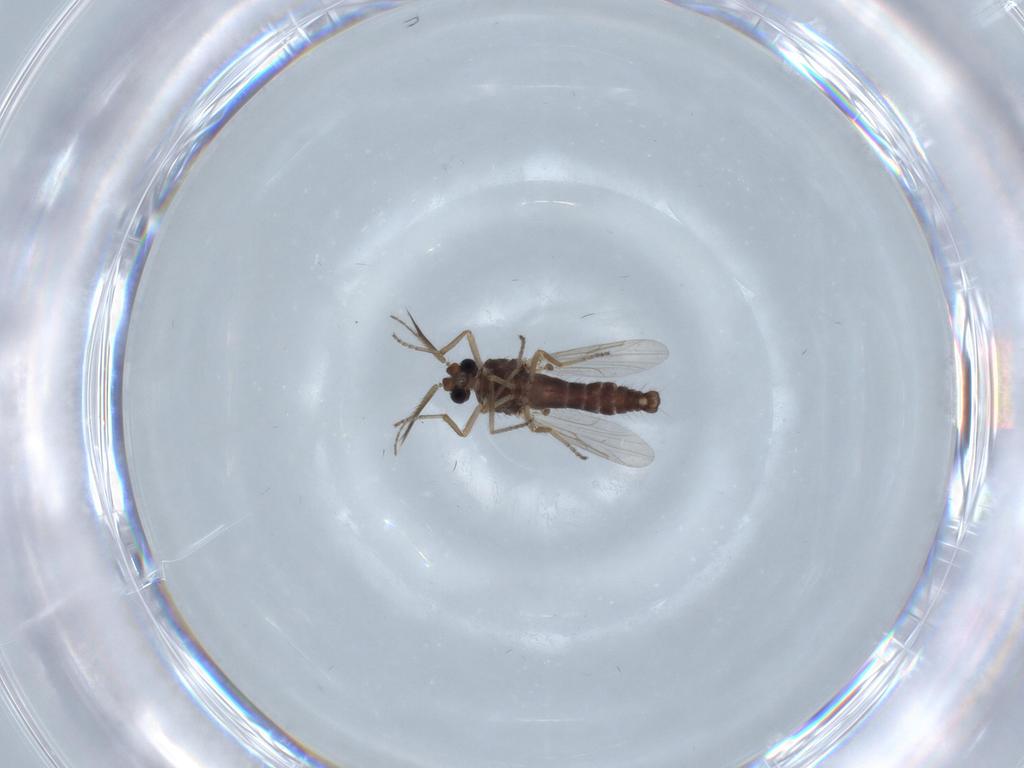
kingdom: Animalia
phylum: Arthropoda
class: Insecta
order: Diptera
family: Ceratopogonidae
